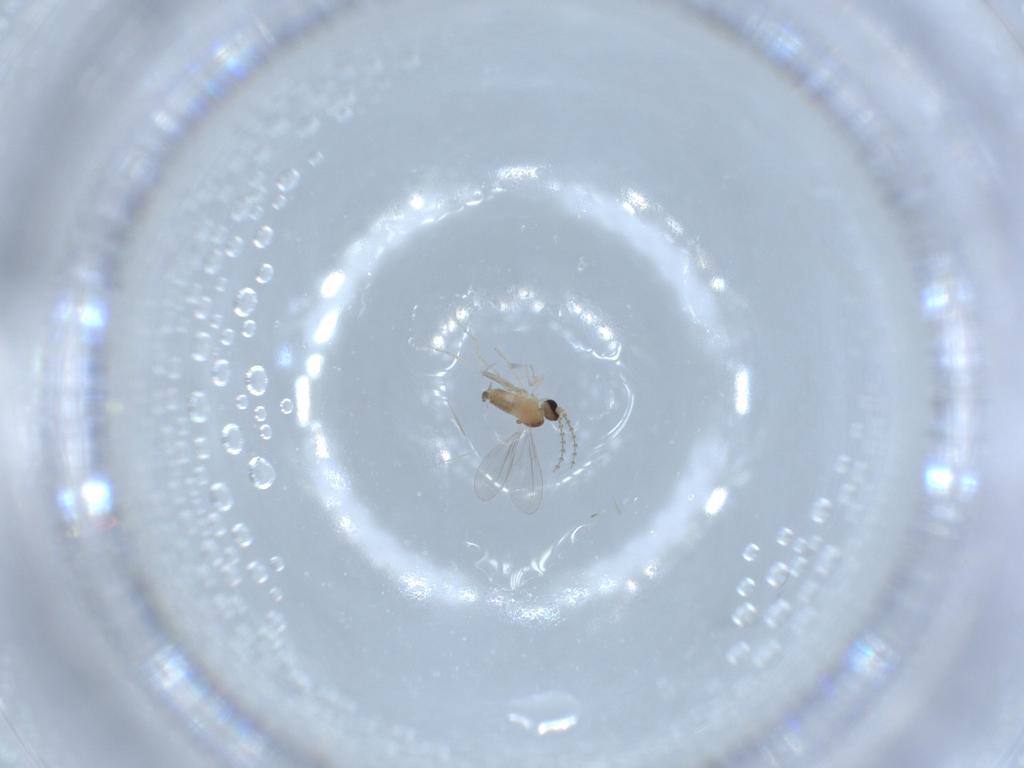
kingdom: Animalia
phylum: Arthropoda
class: Insecta
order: Diptera
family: Cecidomyiidae
